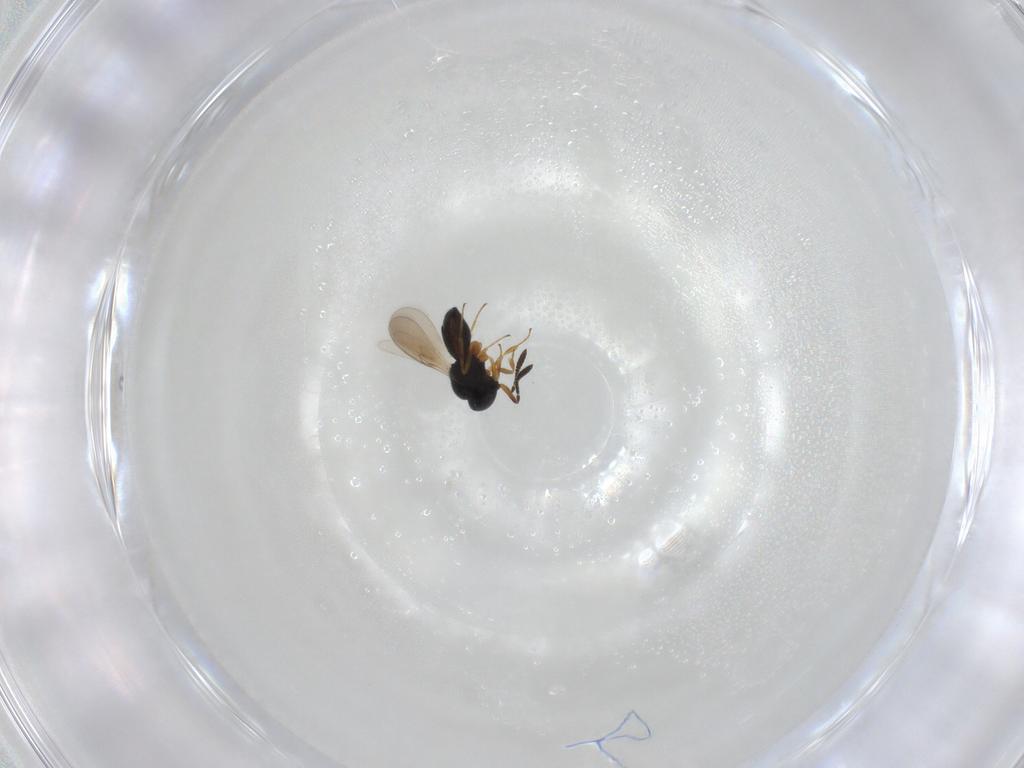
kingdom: Animalia
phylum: Arthropoda
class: Insecta
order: Hymenoptera
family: Scelionidae
